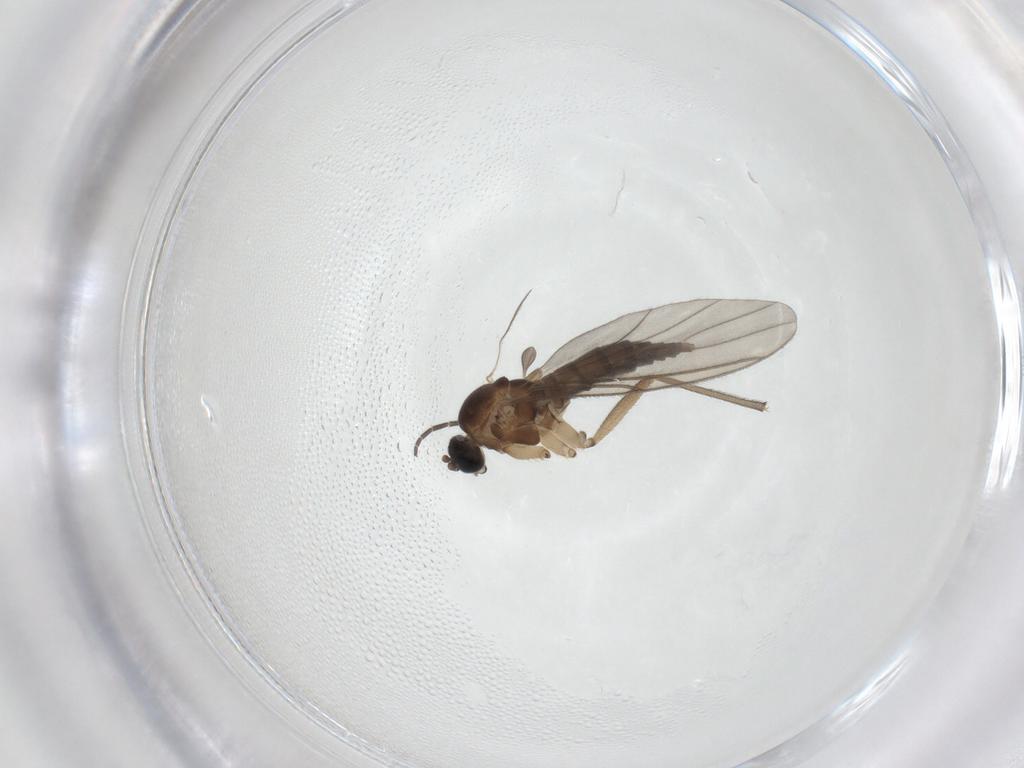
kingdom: Animalia
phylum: Arthropoda
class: Insecta
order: Diptera
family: Sciaridae
